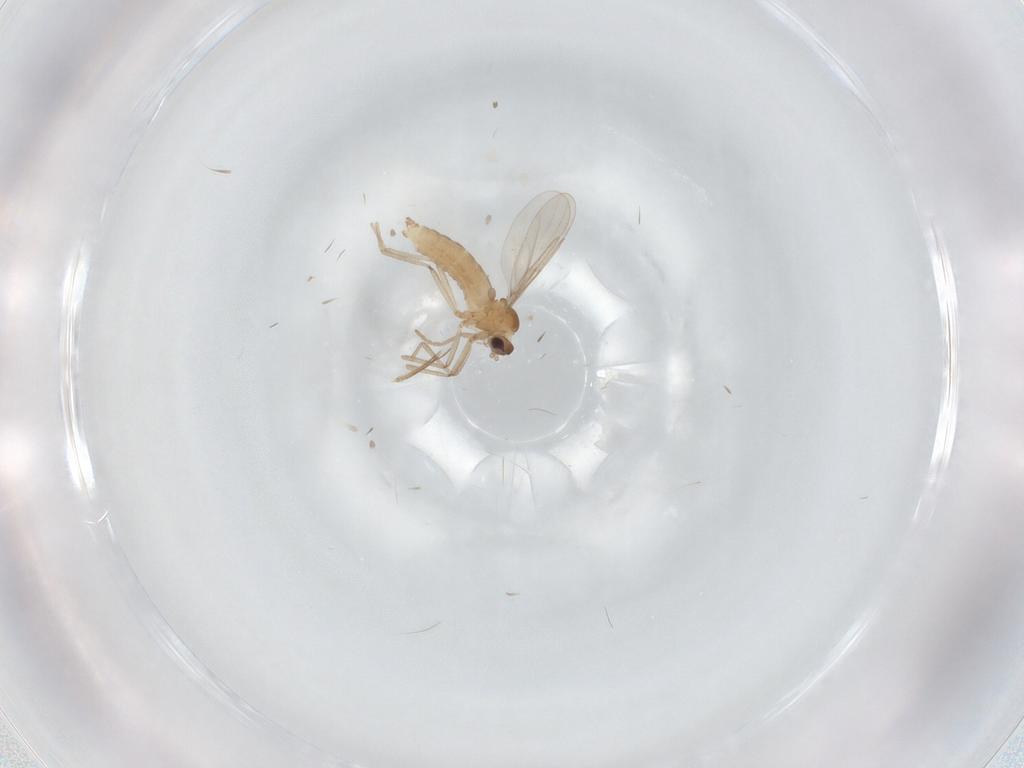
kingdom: Animalia
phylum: Arthropoda
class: Insecta
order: Diptera
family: Cecidomyiidae
